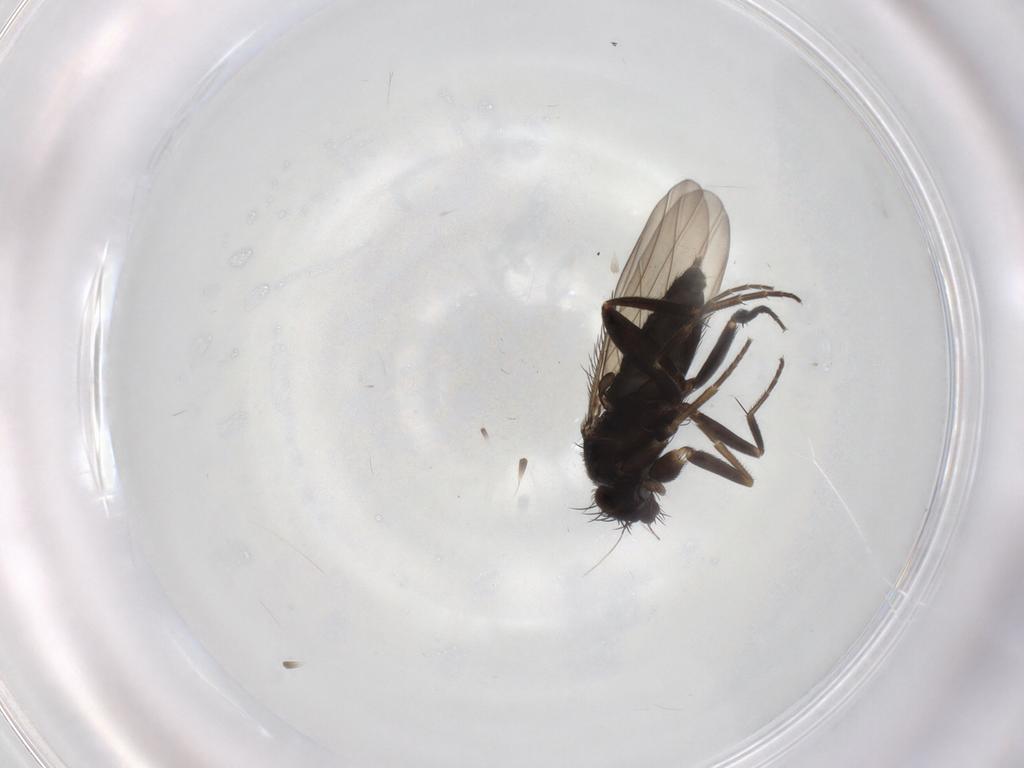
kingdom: Animalia
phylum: Arthropoda
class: Insecta
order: Diptera
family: Phoridae
